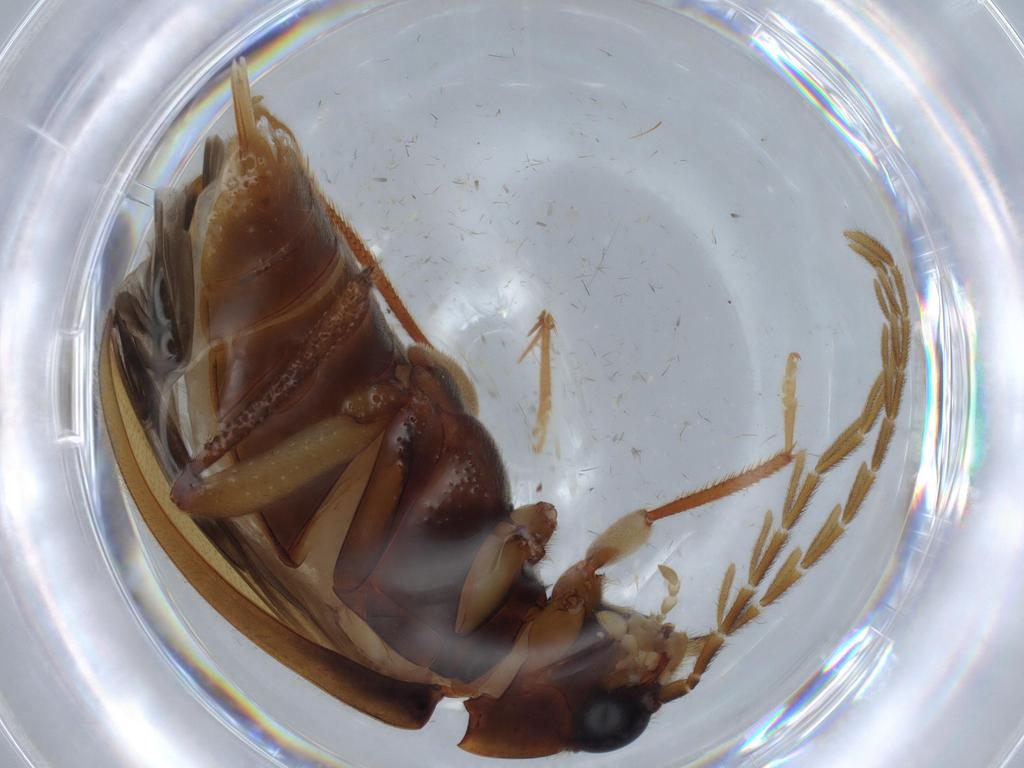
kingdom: Animalia
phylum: Arthropoda
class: Insecta
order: Coleoptera
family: Ptilodactylidae
